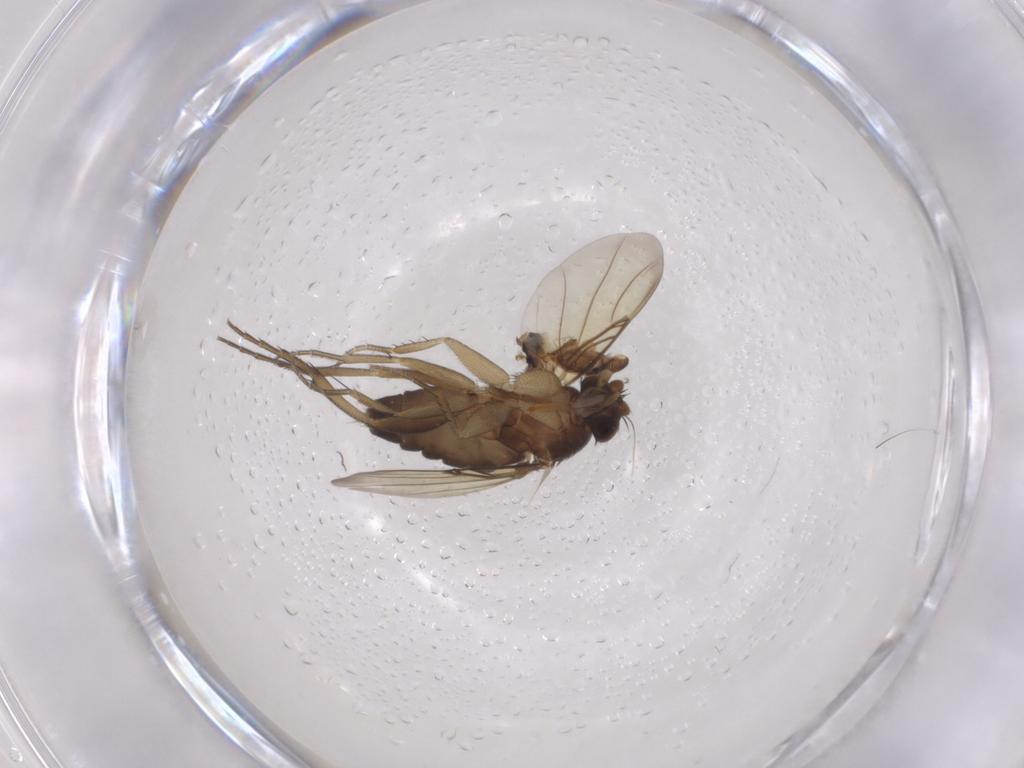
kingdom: Animalia
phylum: Arthropoda
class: Insecta
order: Diptera
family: Phoridae
